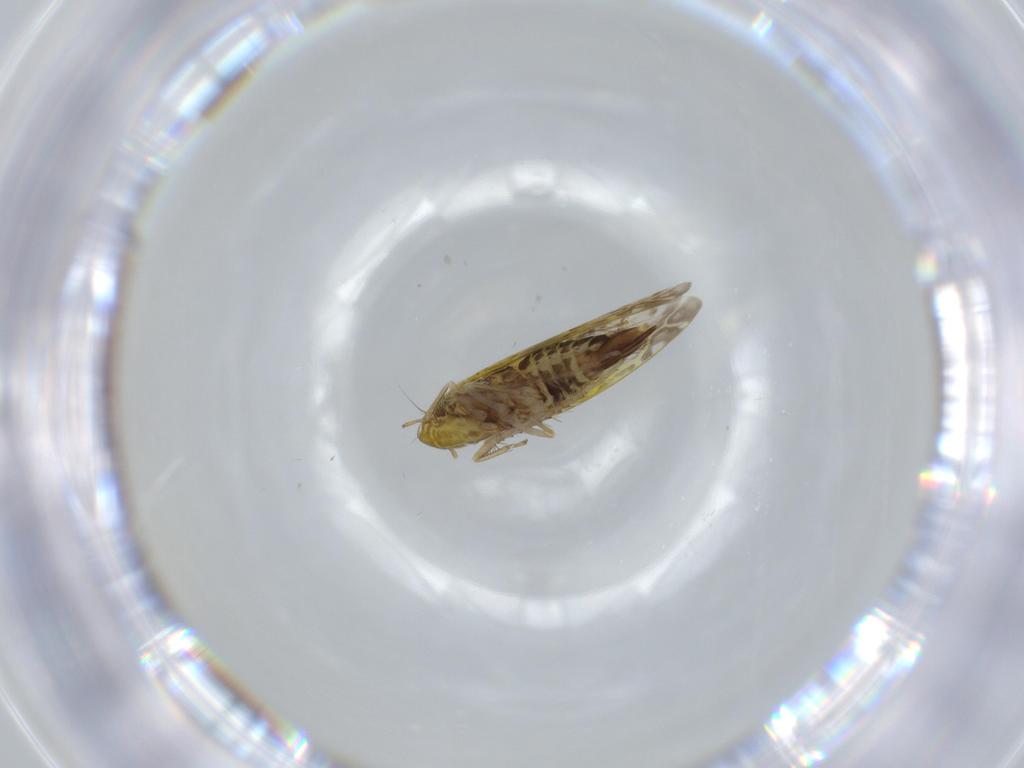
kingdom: Animalia
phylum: Arthropoda
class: Insecta
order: Hemiptera
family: Cicadellidae
